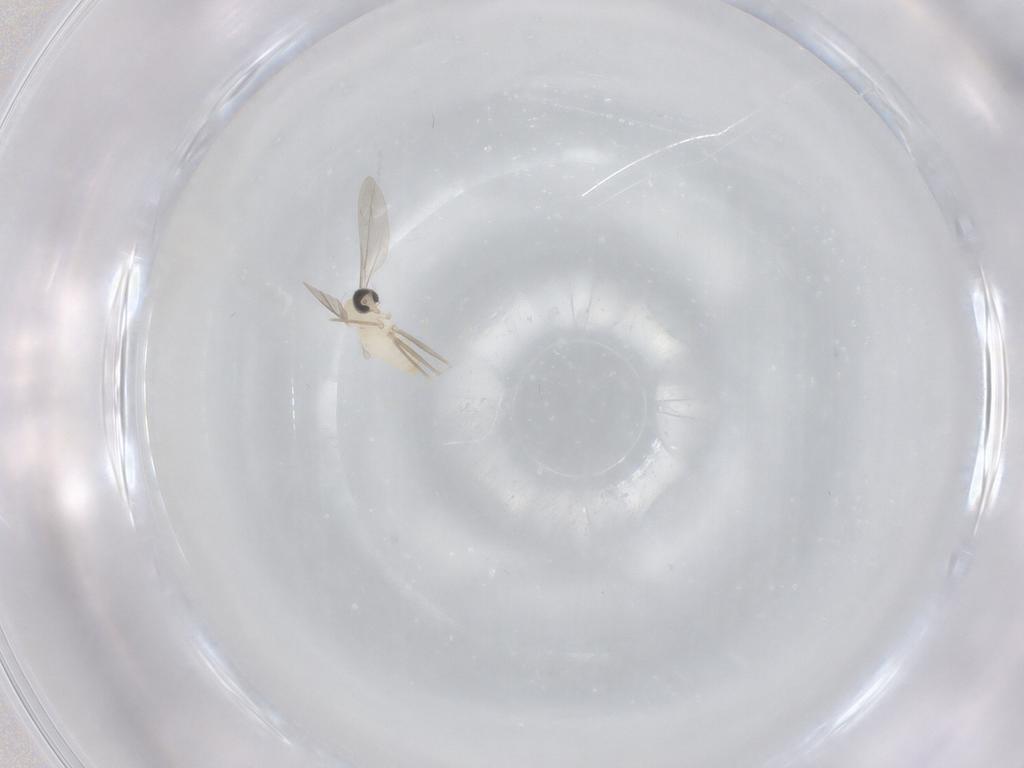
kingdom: Animalia
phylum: Arthropoda
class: Insecta
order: Diptera
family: Cecidomyiidae
